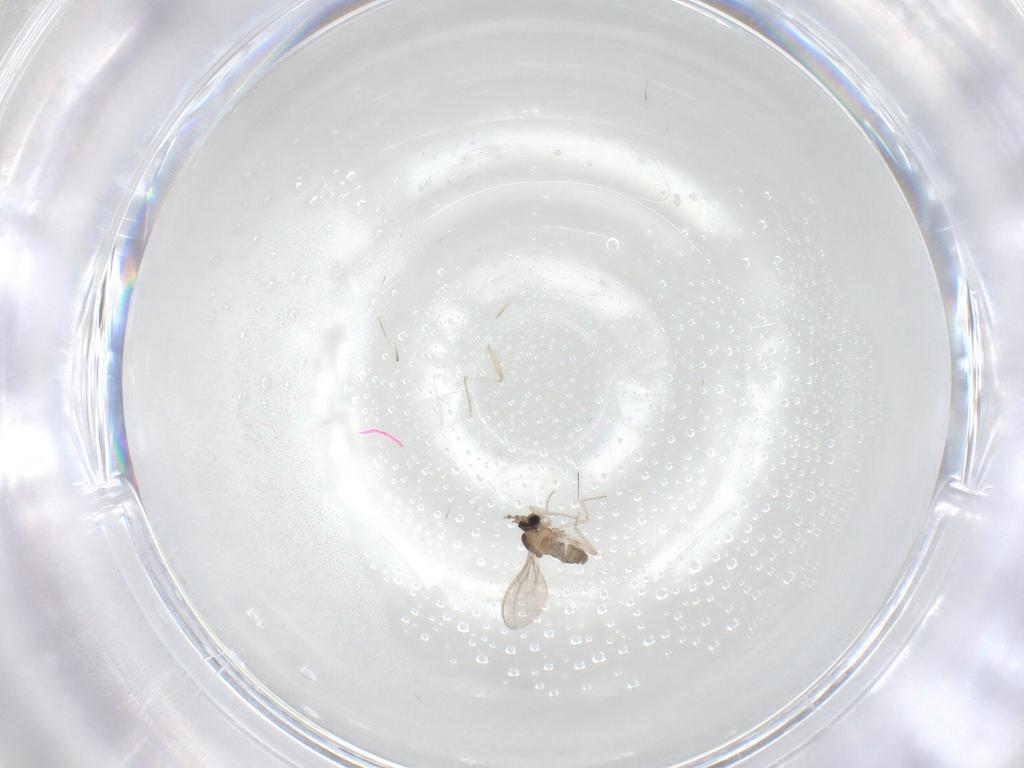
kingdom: Animalia
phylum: Arthropoda
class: Insecta
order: Diptera
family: Cecidomyiidae
